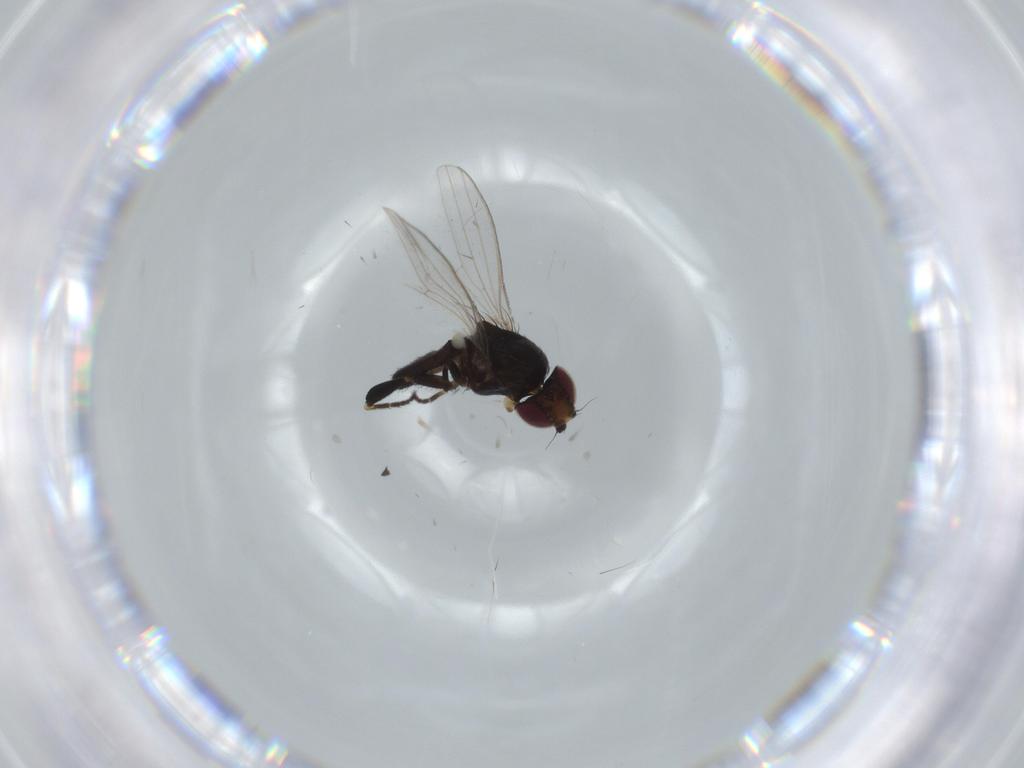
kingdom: Animalia
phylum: Arthropoda
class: Insecta
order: Diptera
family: Milichiidae
